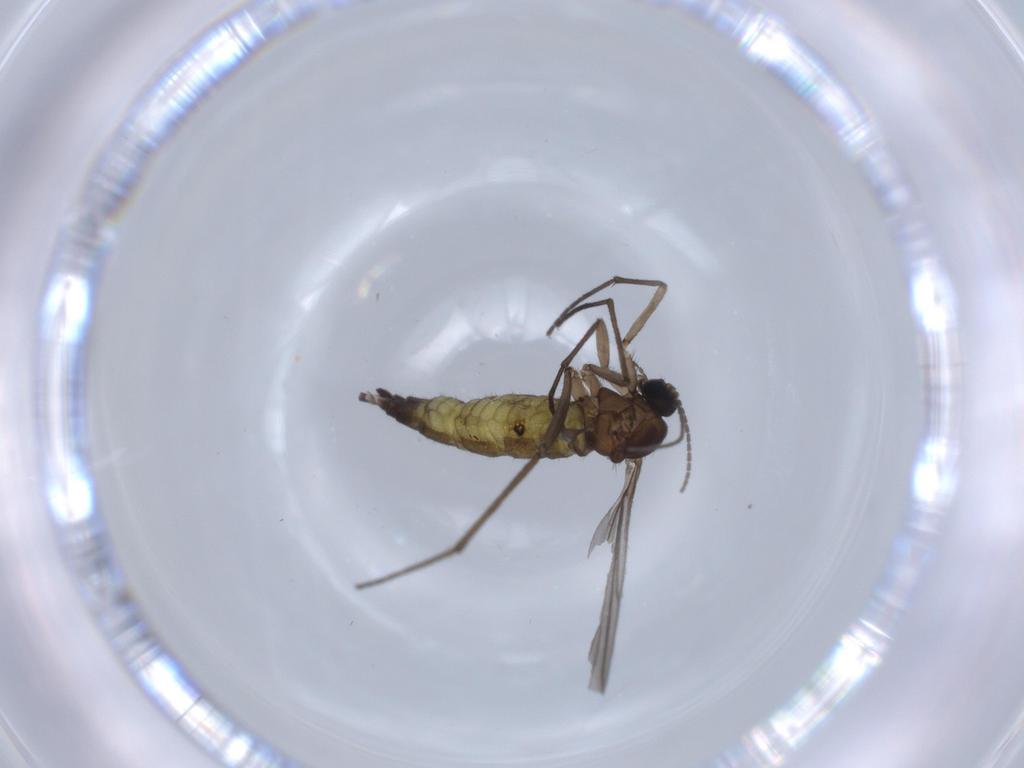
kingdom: Animalia
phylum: Arthropoda
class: Insecta
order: Diptera
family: Sciaridae
